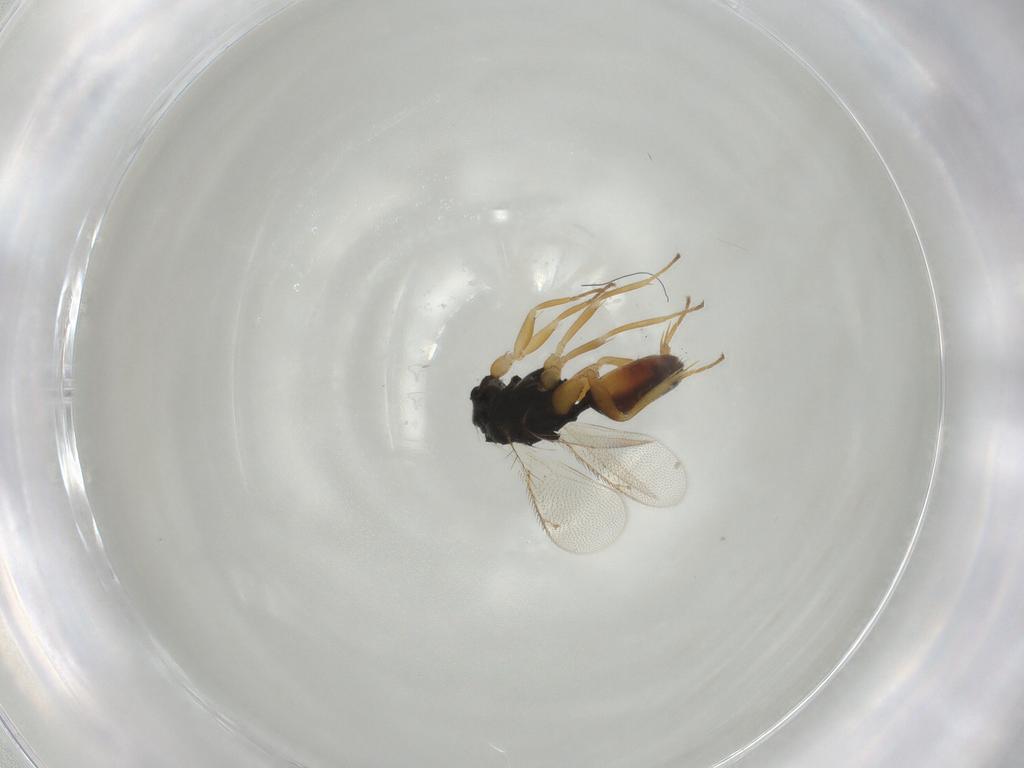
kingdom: Animalia
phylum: Arthropoda
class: Insecta
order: Hymenoptera
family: Eulophidae
